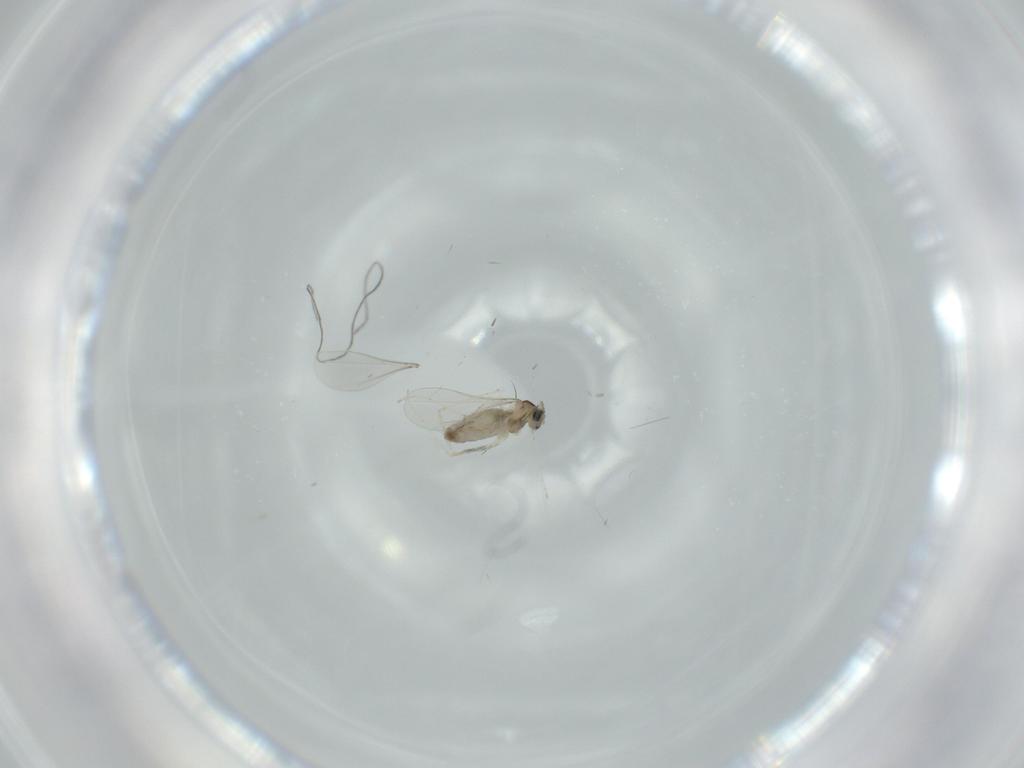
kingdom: Animalia
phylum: Arthropoda
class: Insecta
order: Diptera
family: Cecidomyiidae
